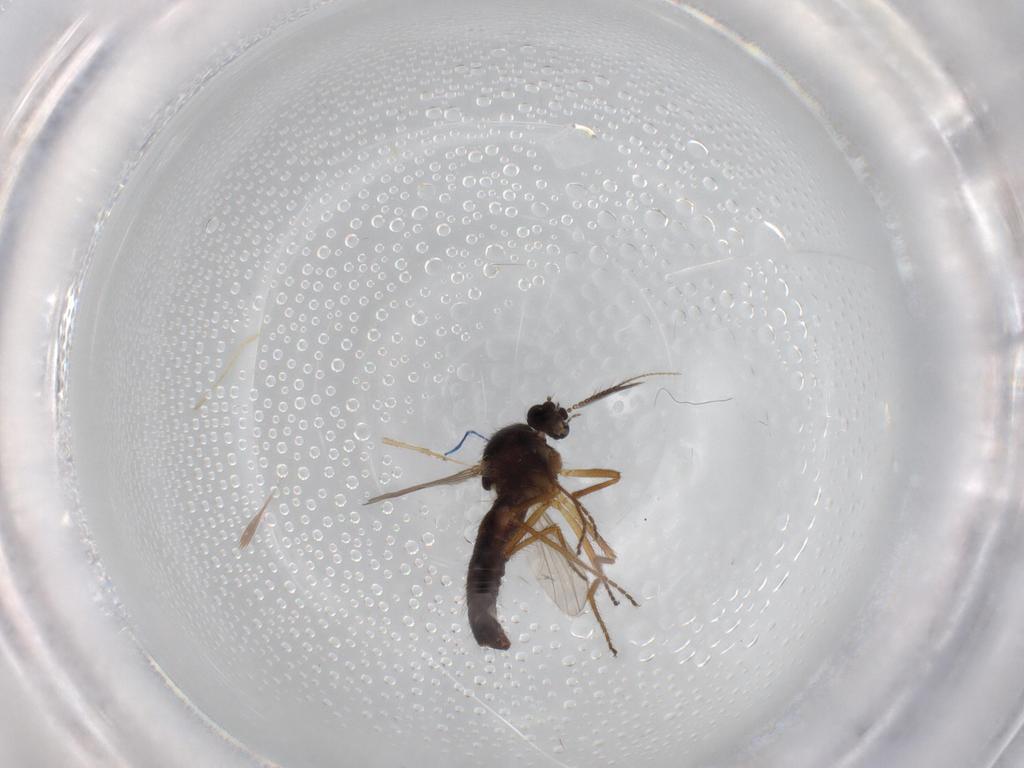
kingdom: Animalia
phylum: Arthropoda
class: Insecta
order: Diptera
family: Ceratopogonidae
